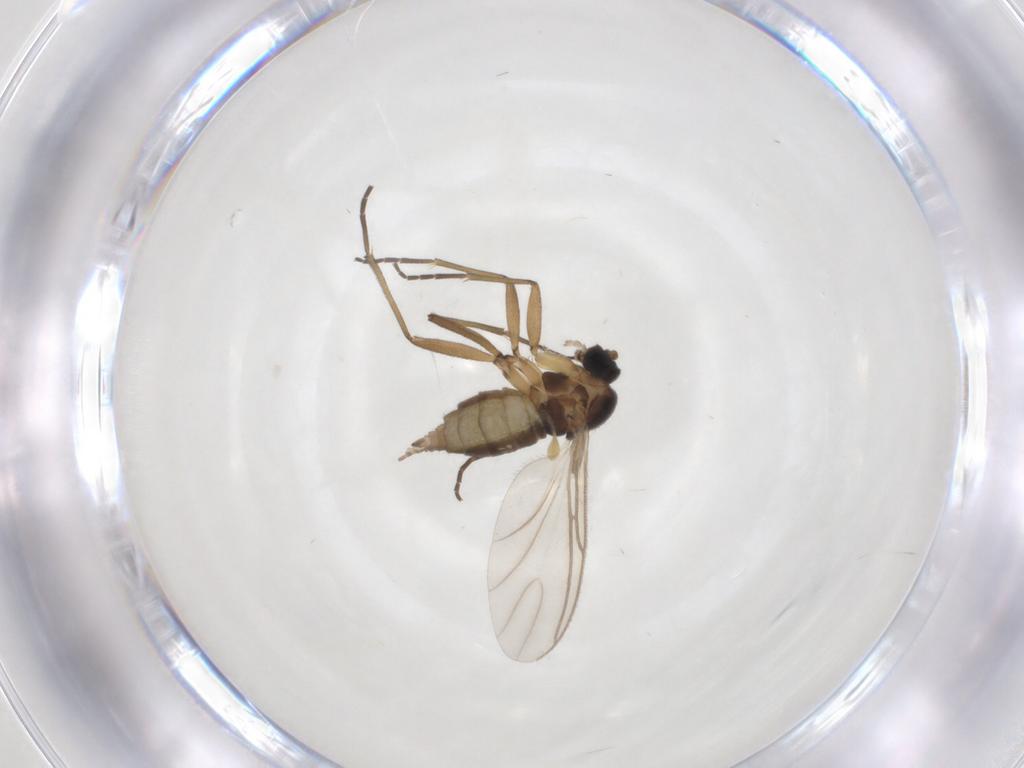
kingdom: Animalia
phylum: Arthropoda
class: Insecta
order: Diptera
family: Sciaridae
